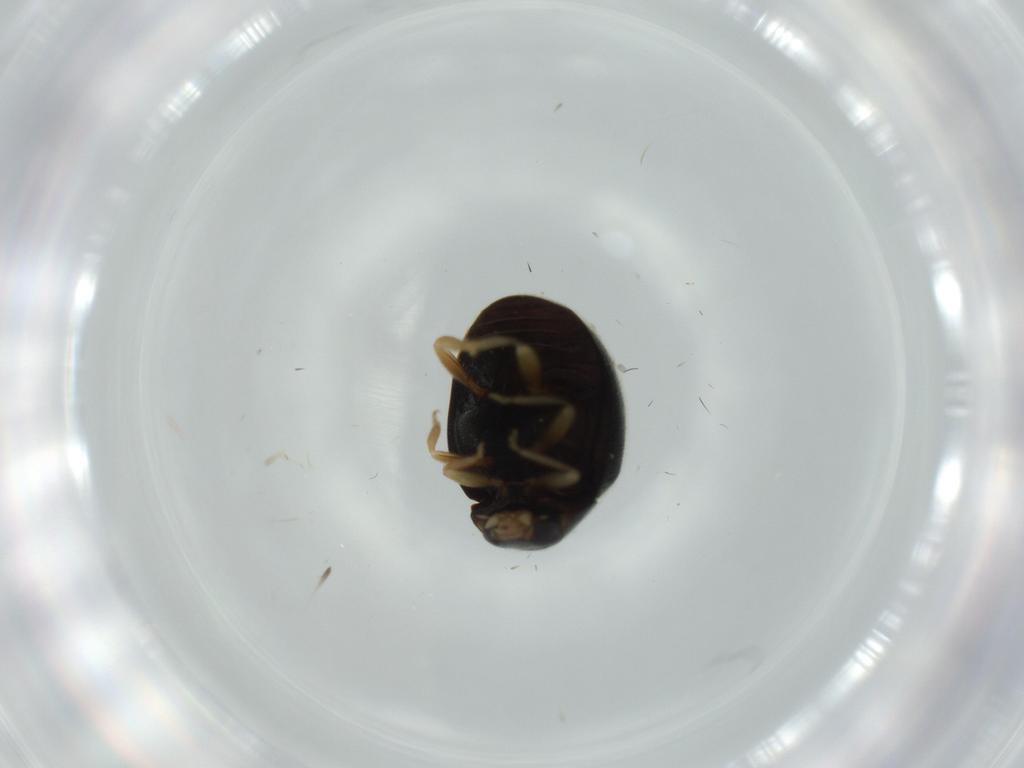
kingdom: Animalia
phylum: Arthropoda
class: Insecta
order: Coleoptera
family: Coccinellidae
